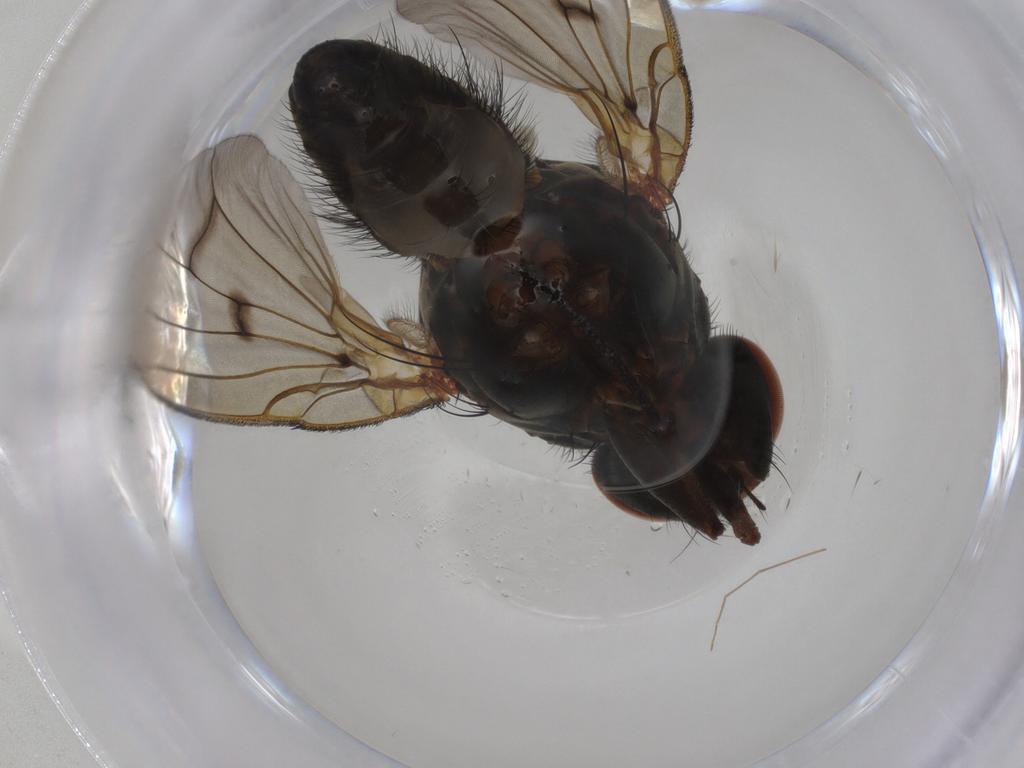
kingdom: Animalia
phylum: Arthropoda
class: Insecta
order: Diptera
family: Anthomyiidae
